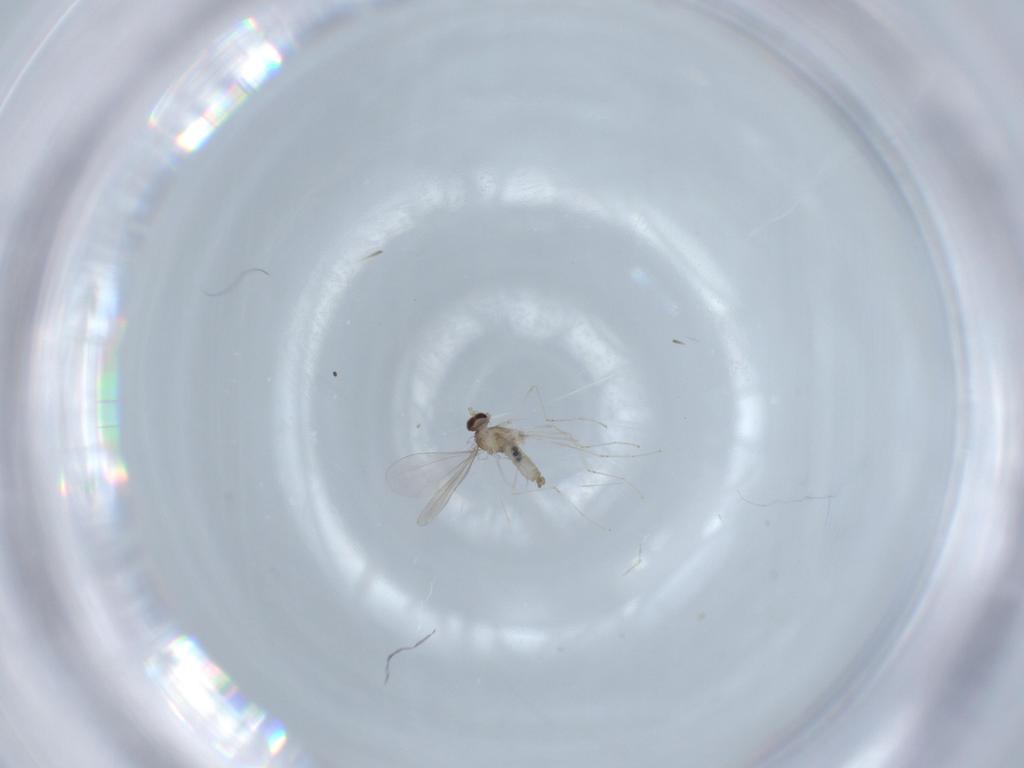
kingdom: Animalia
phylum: Arthropoda
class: Insecta
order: Diptera
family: Cecidomyiidae
